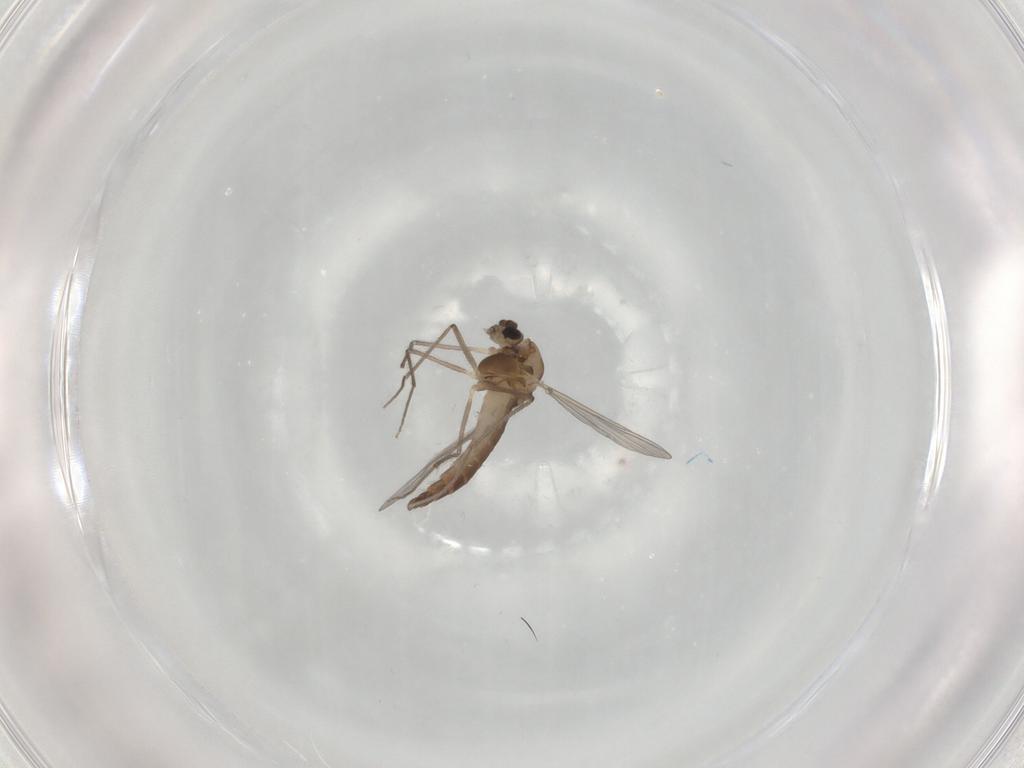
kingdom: Animalia
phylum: Arthropoda
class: Insecta
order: Diptera
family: Chironomidae
